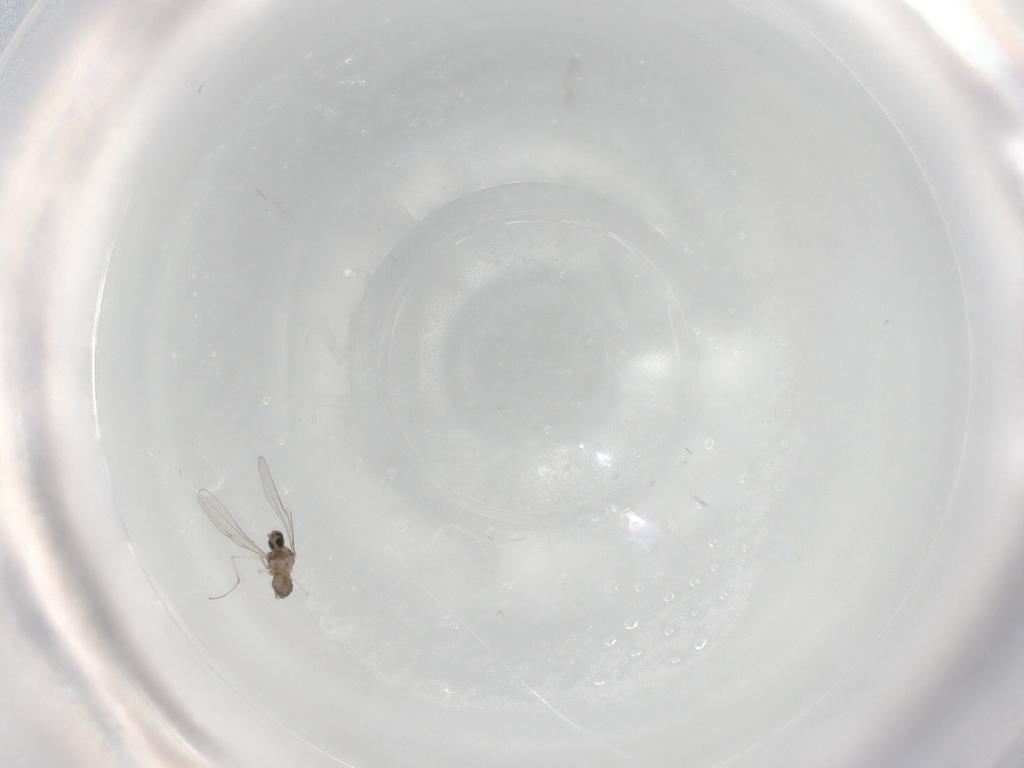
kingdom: Animalia
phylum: Arthropoda
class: Insecta
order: Diptera
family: Cecidomyiidae
